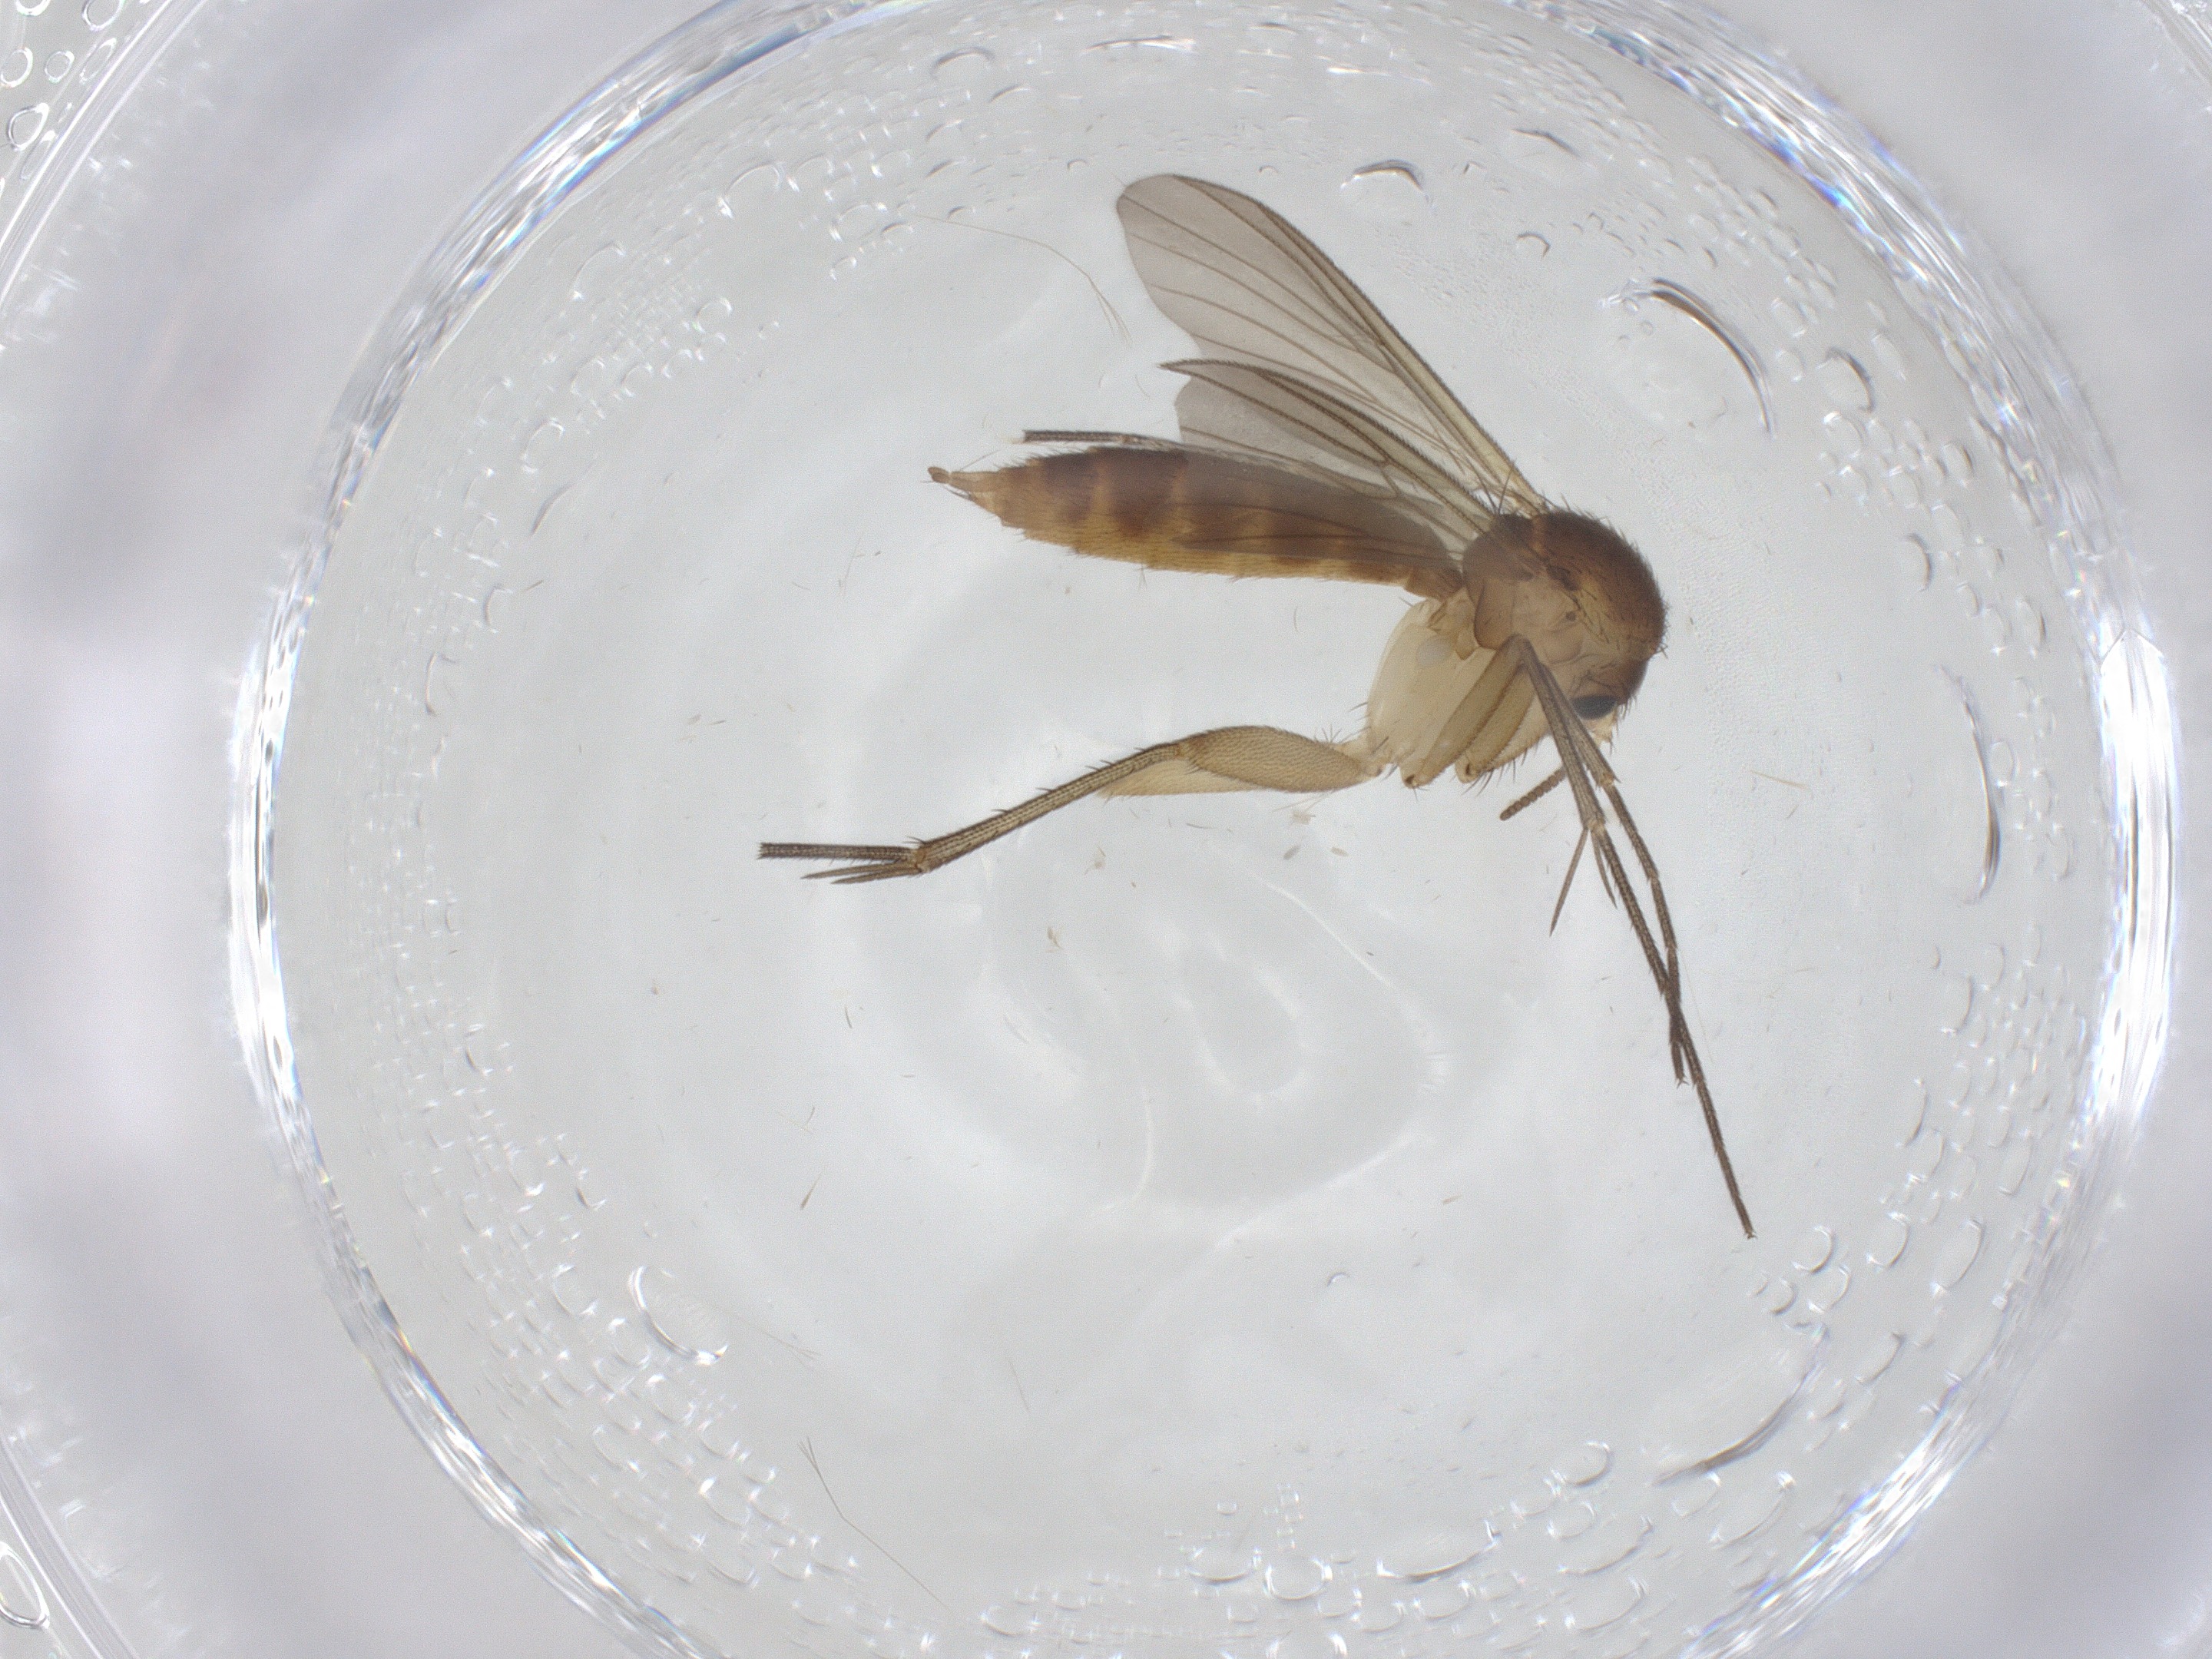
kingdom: Animalia
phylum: Arthropoda
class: Insecta
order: Diptera
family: Mycetophilidae
